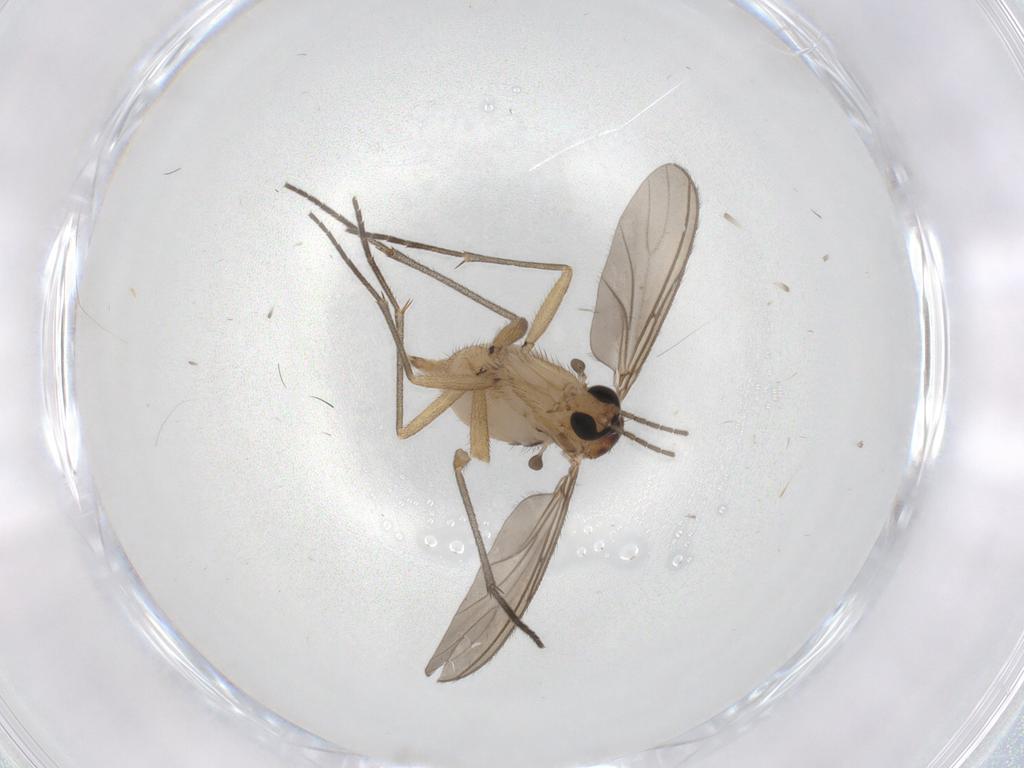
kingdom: Animalia
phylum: Arthropoda
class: Insecta
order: Diptera
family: Sciaridae
